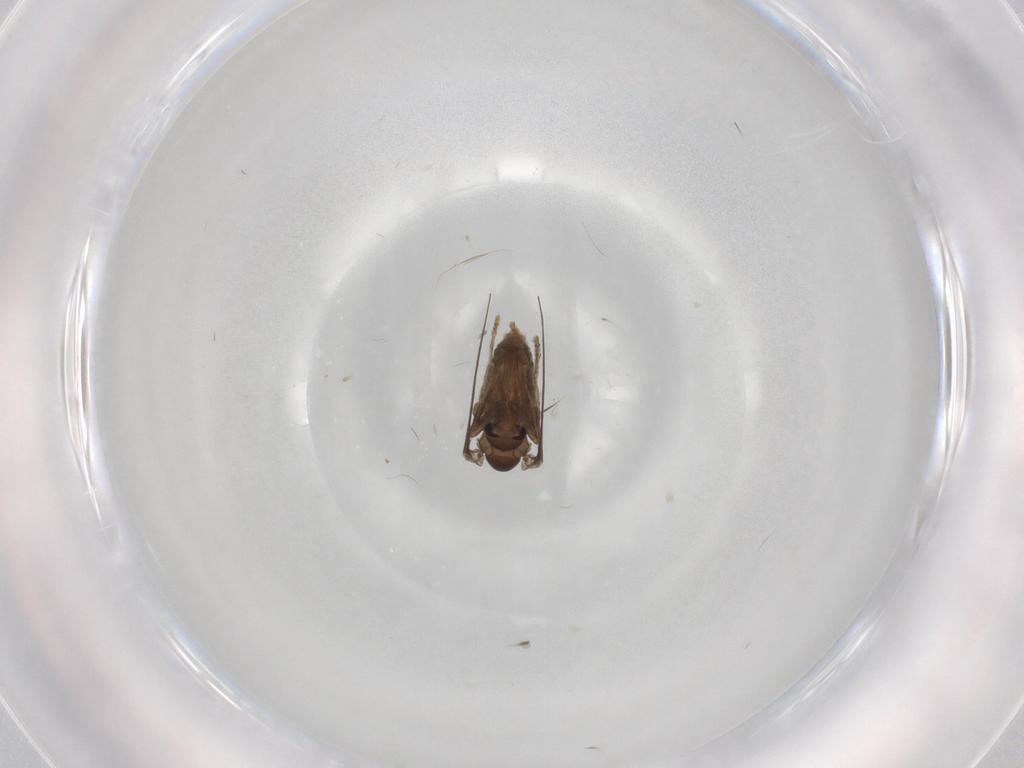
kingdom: Animalia
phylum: Arthropoda
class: Insecta
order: Diptera
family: Psychodidae
